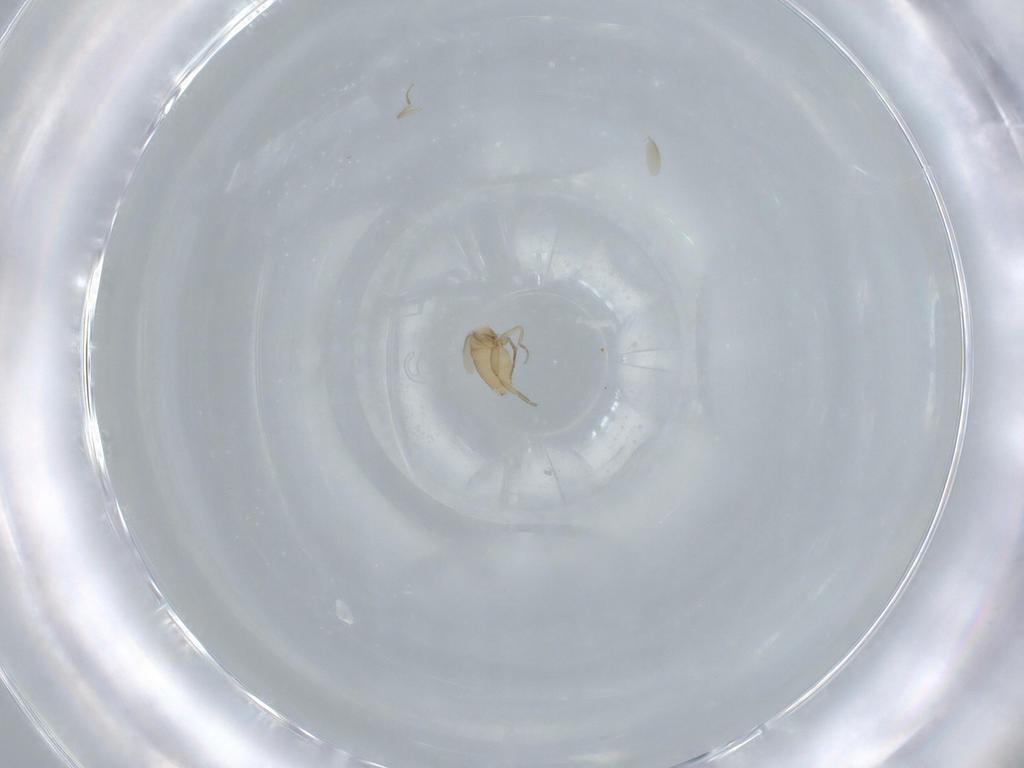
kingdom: Animalia
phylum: Arthropoda
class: Insecta
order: Diptera
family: Phoridae
